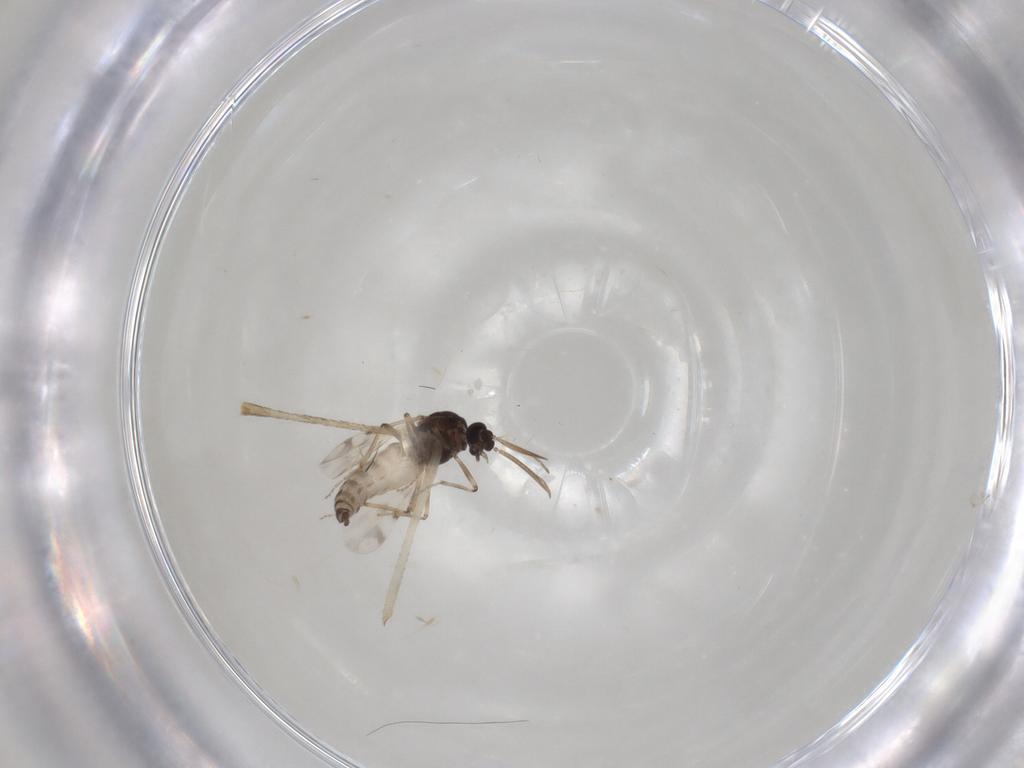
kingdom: Animalia
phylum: Arthropoda
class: Insecta
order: Diptera
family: Culicidae
